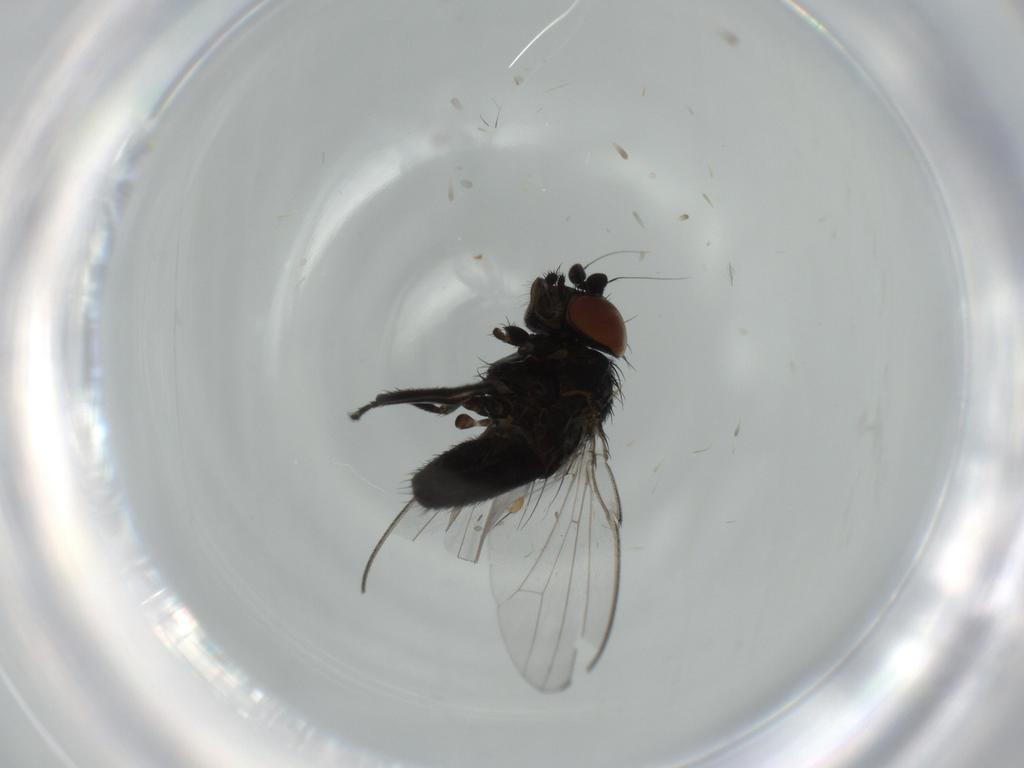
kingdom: Animalia
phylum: Arthropoda
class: Insecta
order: Diptera
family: Milichiidae
